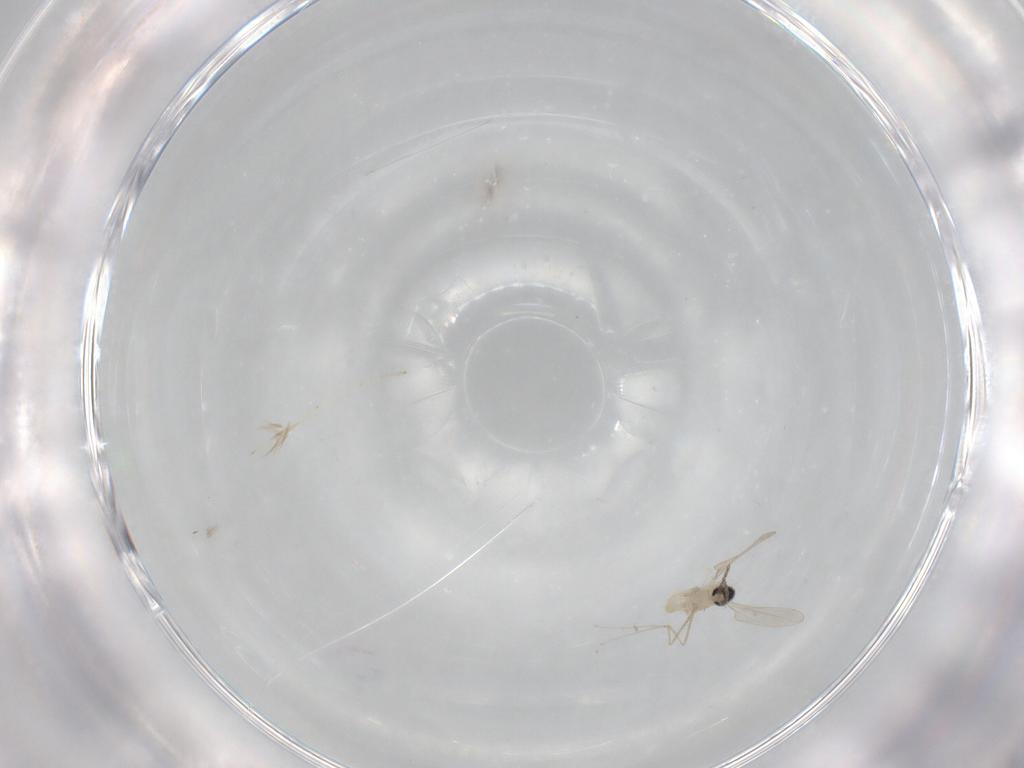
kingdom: Animalia
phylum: Arthropoda
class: Insecta
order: Diptera
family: Cecidomyiidae
